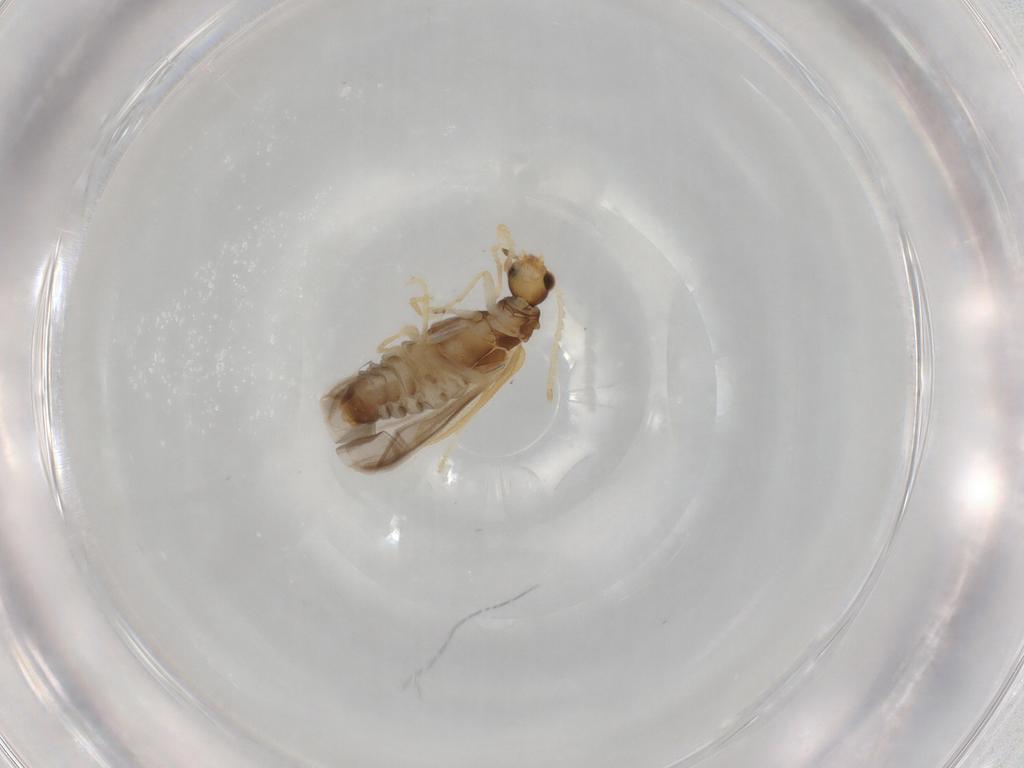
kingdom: Animalia
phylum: Arthropoda
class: Insecta
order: Coleoptera
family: Cantharidae
